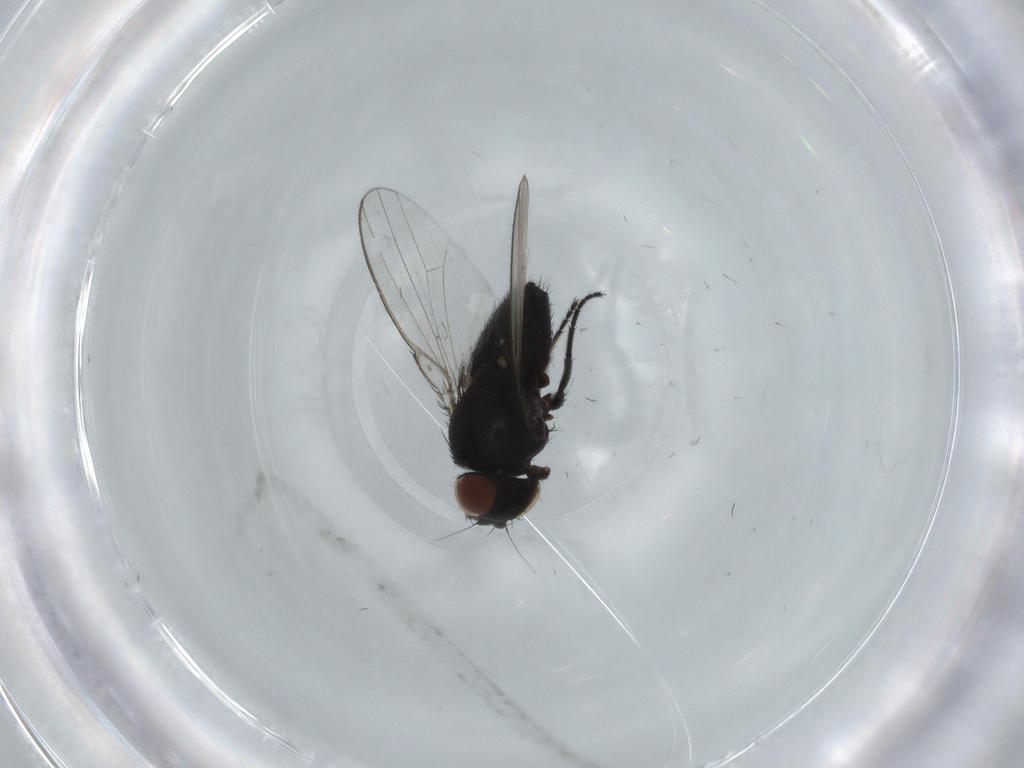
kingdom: Animalia
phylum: Arthropoda
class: Insecta
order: Diptera
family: Milichiidae
